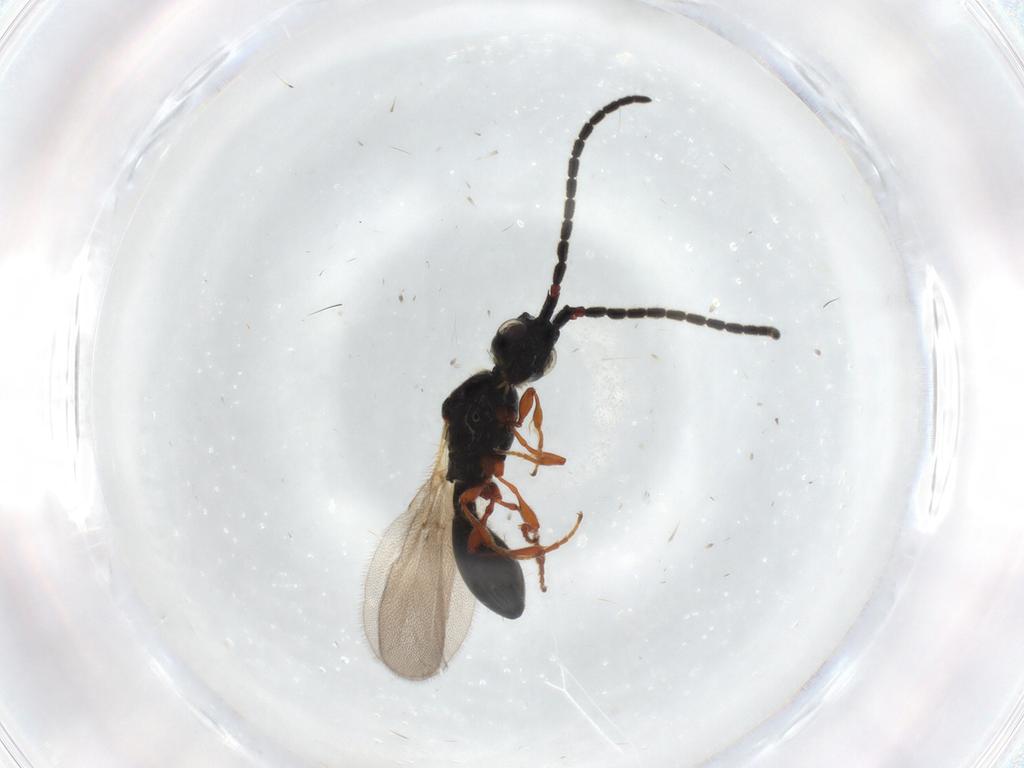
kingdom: Animalia
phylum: Arthropoda
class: Insecta
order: Hymenoptera
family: Diapriidae
